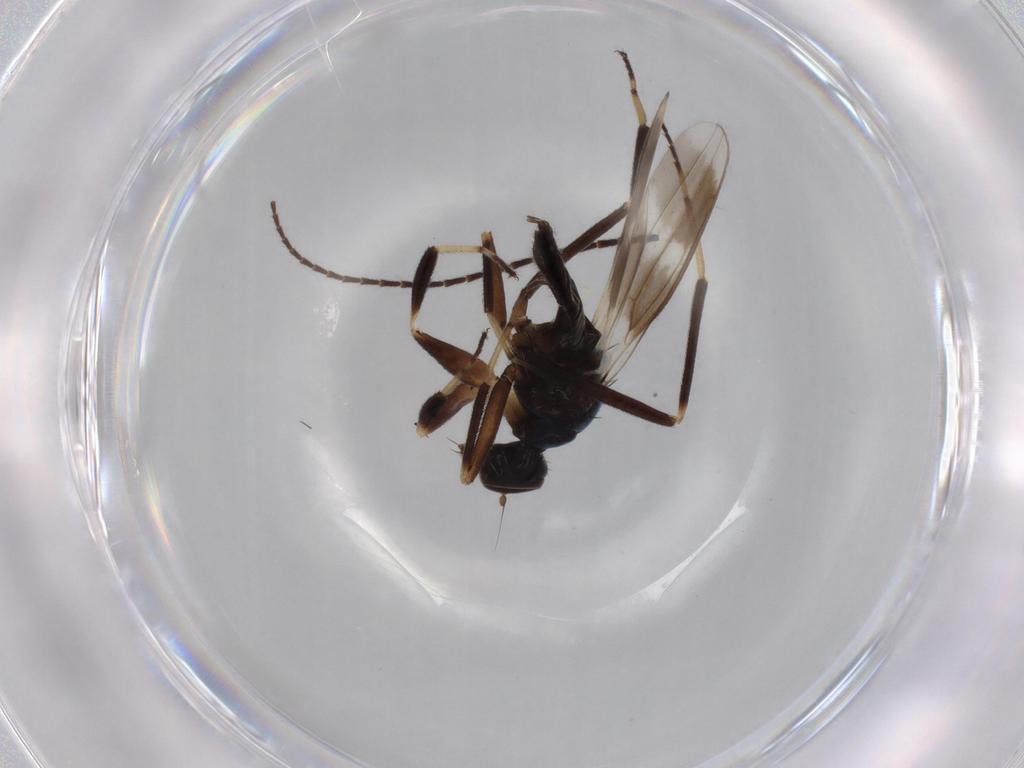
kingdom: Animalia
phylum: Arthropoda
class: Insecta
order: Diptera
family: Hybotidae
